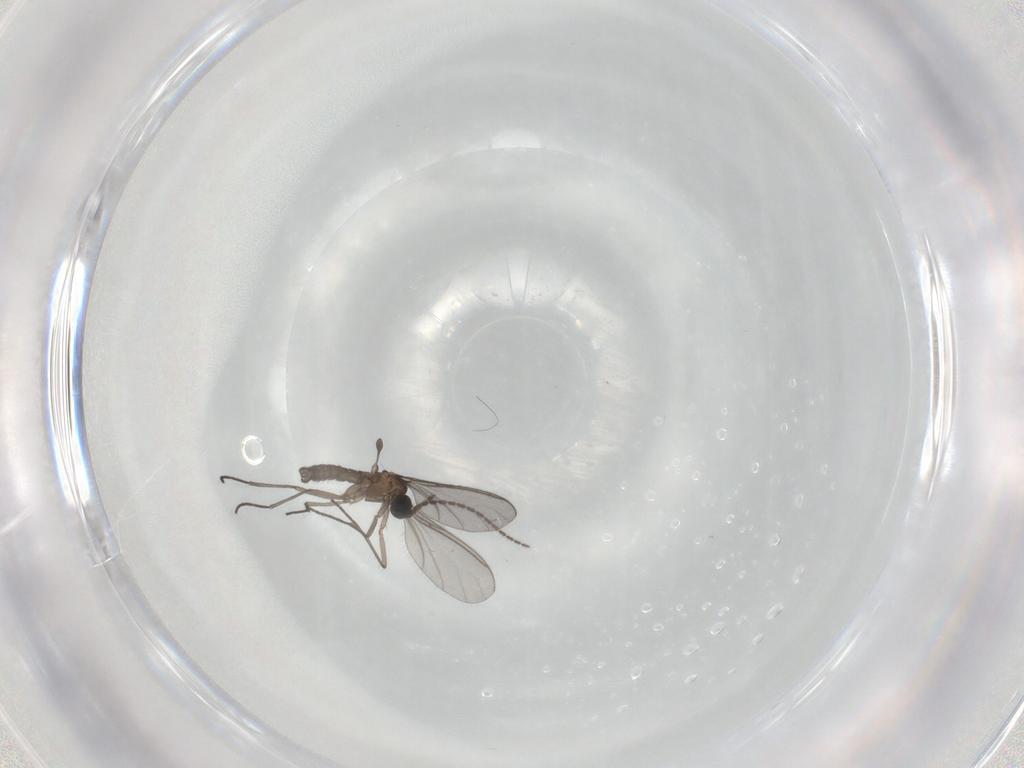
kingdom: Animalia
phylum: Arthropoda
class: Insecta
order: Diptera
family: Sciaridae
